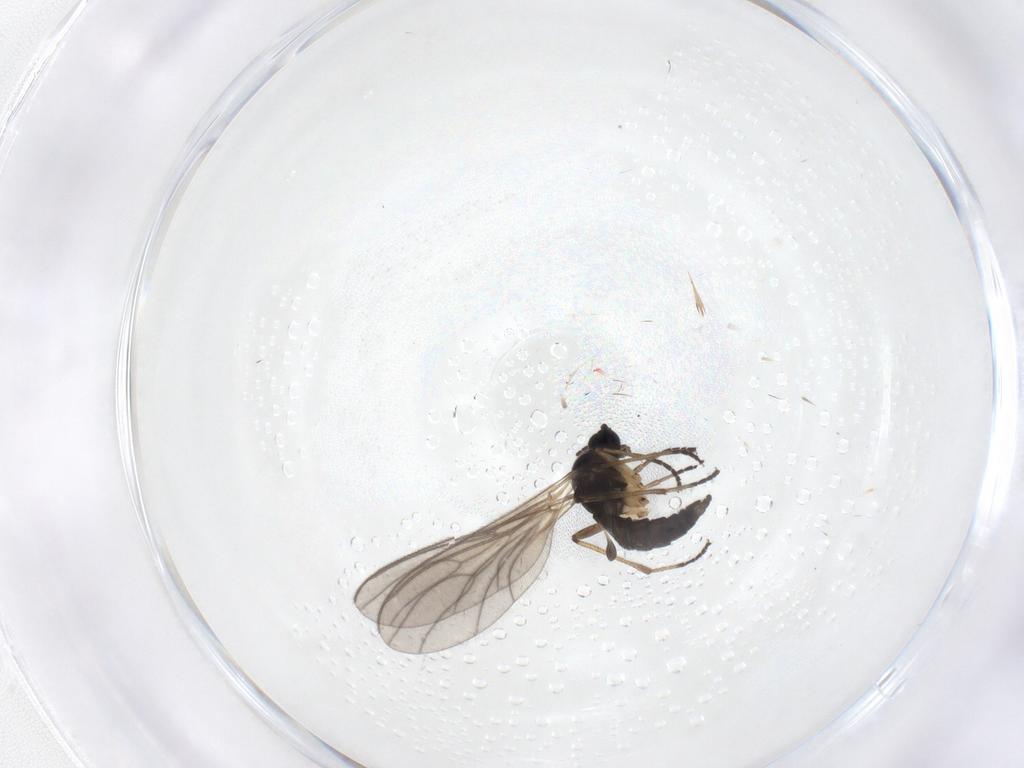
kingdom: Animalia
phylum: Arthropoda
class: Insecta
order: Diptera
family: Sciaridae
